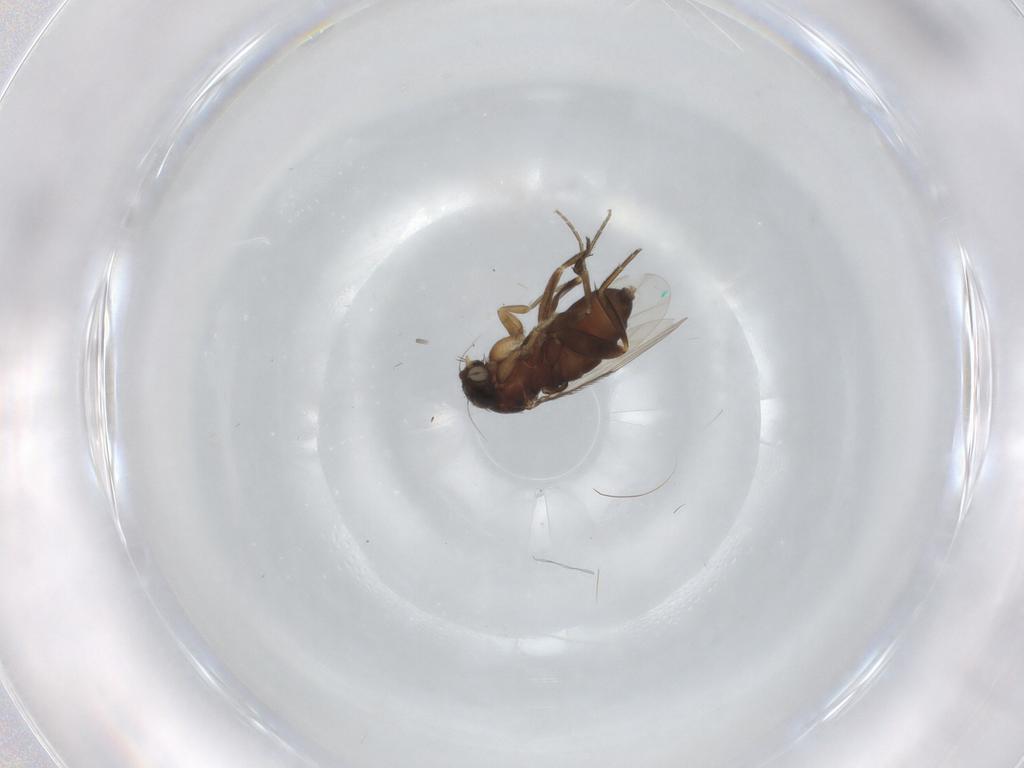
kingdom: Animalia
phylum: Arthropoda
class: Insecta
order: Diptera
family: Phoridae
